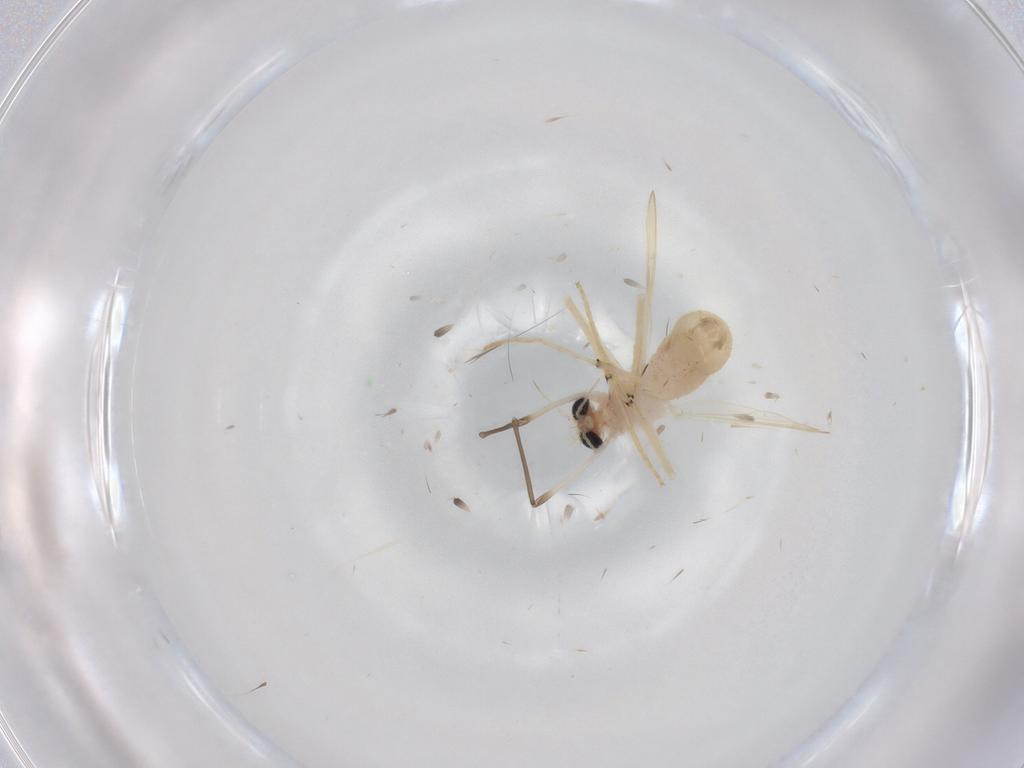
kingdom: Animalia
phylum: Arthropoda
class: Insecta
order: Diptera
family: Chironomidae
